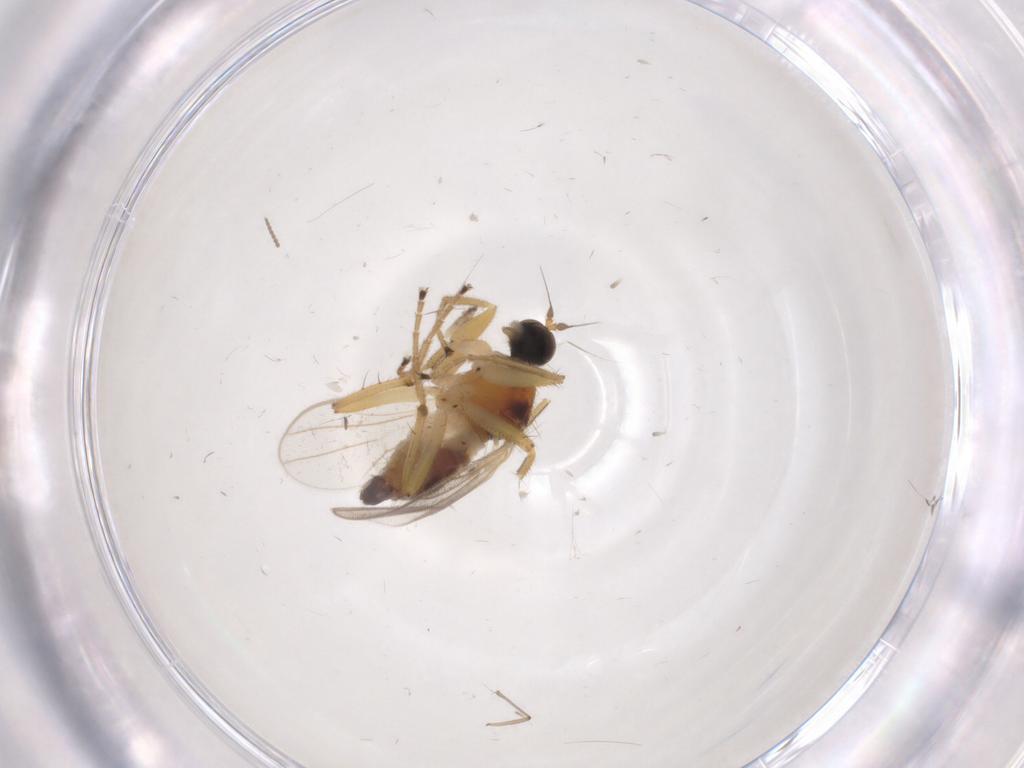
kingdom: Animalia
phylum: Arthropoda
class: Insecta
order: Diptera
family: Hybotidae
